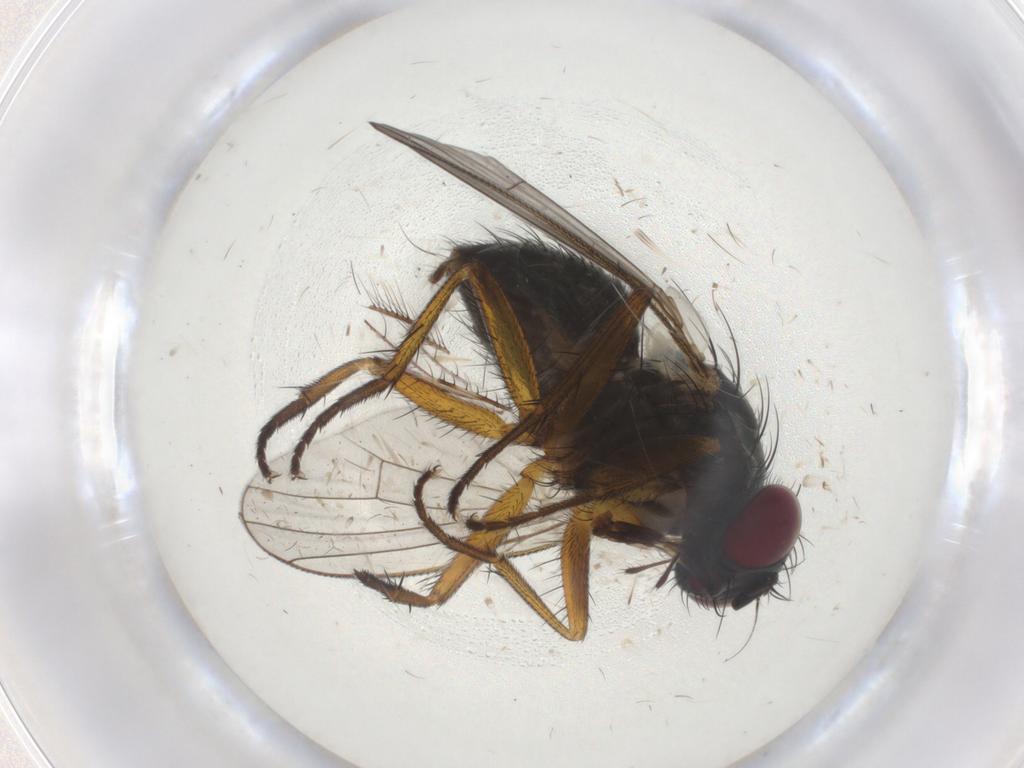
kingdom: Animalia
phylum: Arthropoda
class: Insecta
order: Diptera
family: Muscidae
